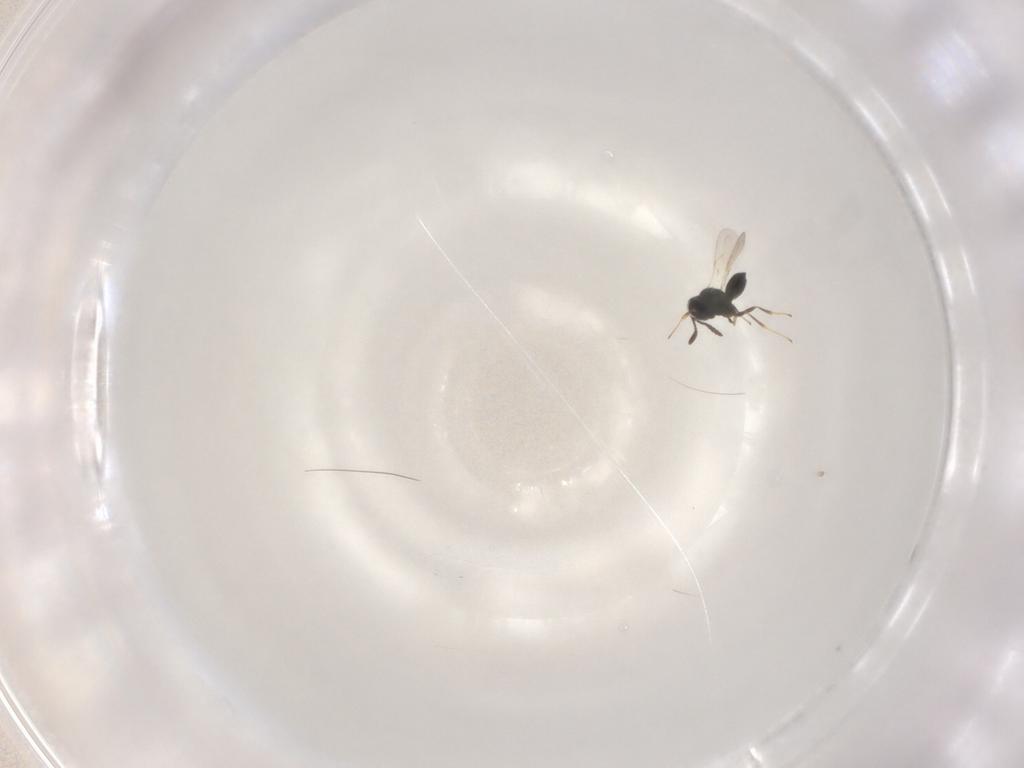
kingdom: Animalia
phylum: Arthropoda
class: Insecta
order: Hymenoptera
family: Scelionidae
